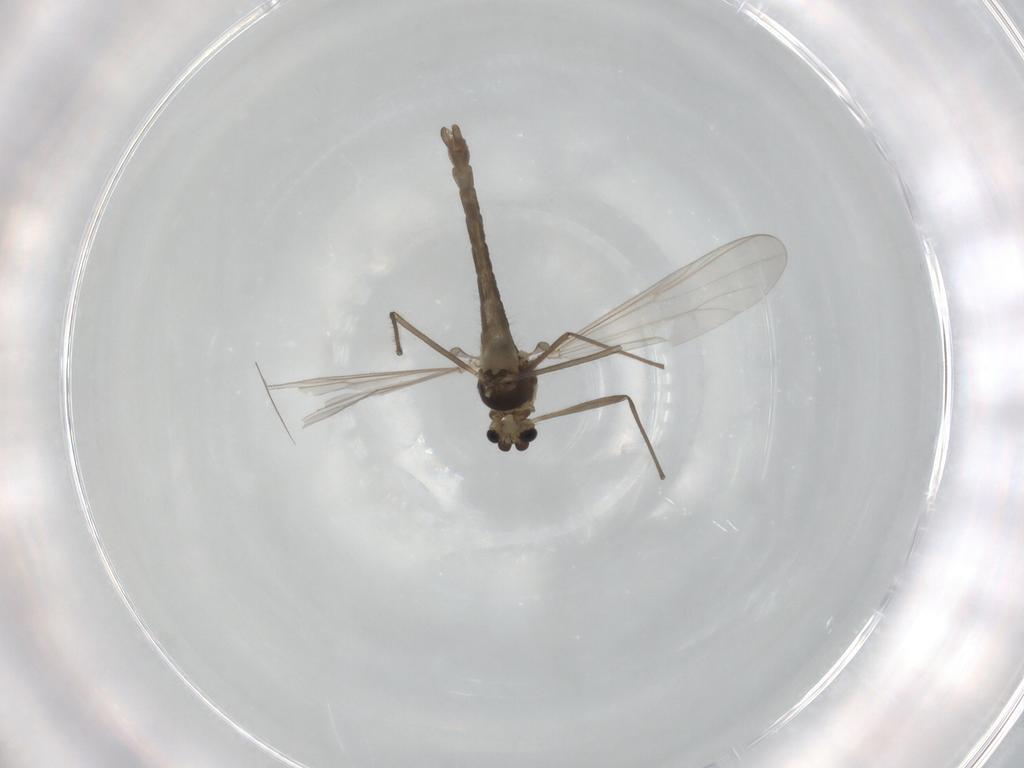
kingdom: Animalia
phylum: Arthropoda
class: Insecta
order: Diptera
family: Chironomidae
